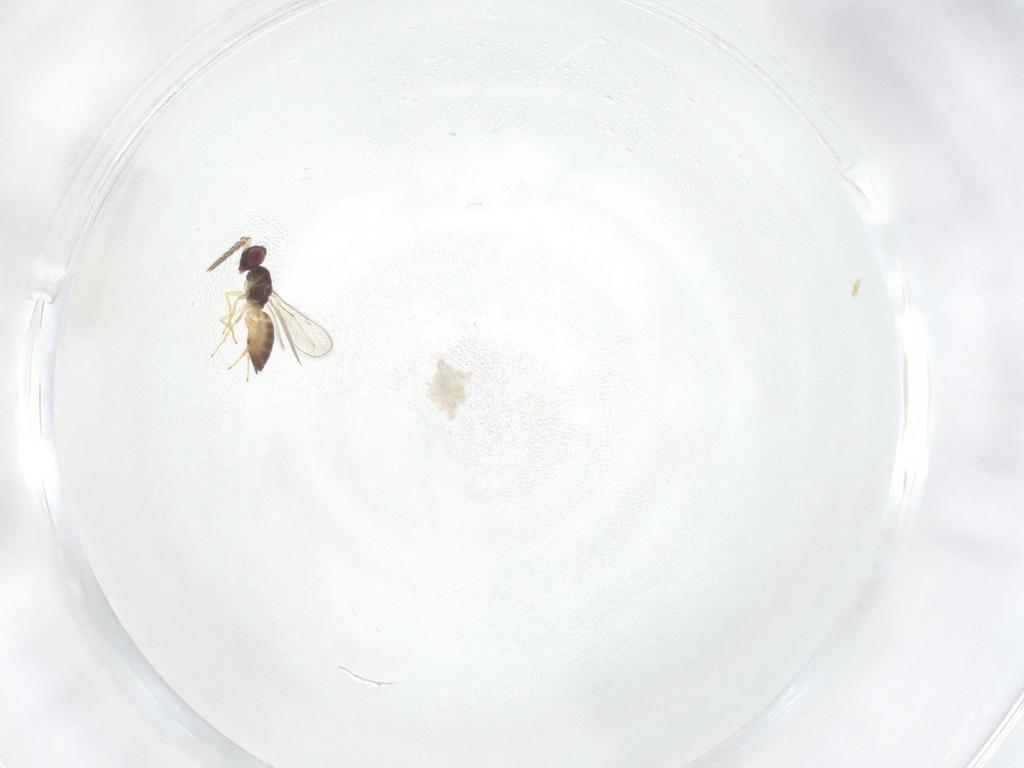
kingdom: Animalia
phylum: Arthropoda
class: Insecta
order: Hymenoptera
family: Eulophidae
